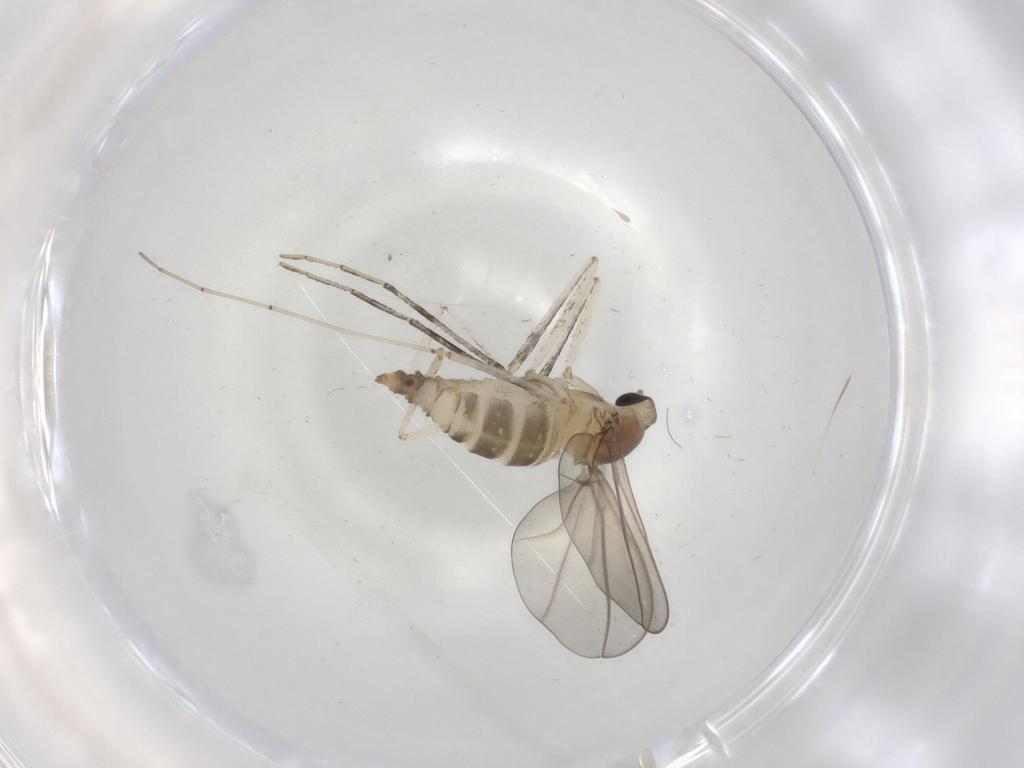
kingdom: Animalia
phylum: Arthropoda
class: Insecta
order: Diptera
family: Cecidomyiidae
